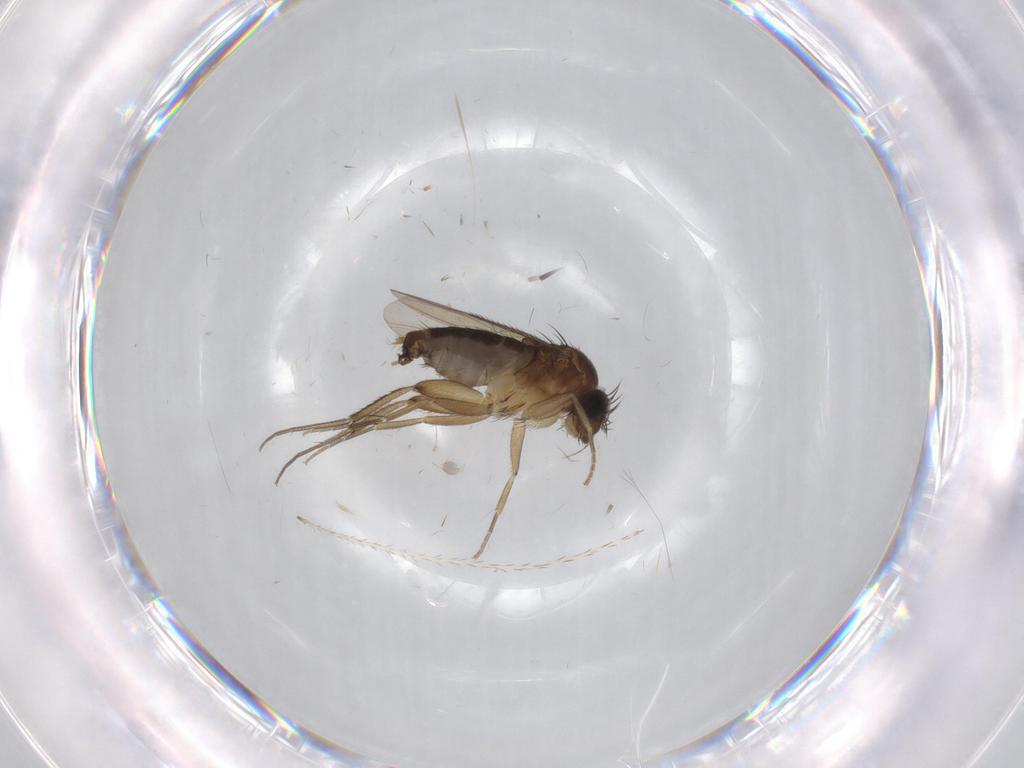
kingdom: Animalia
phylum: Arthropoda
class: Insecta
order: Diptera
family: Phoridae
